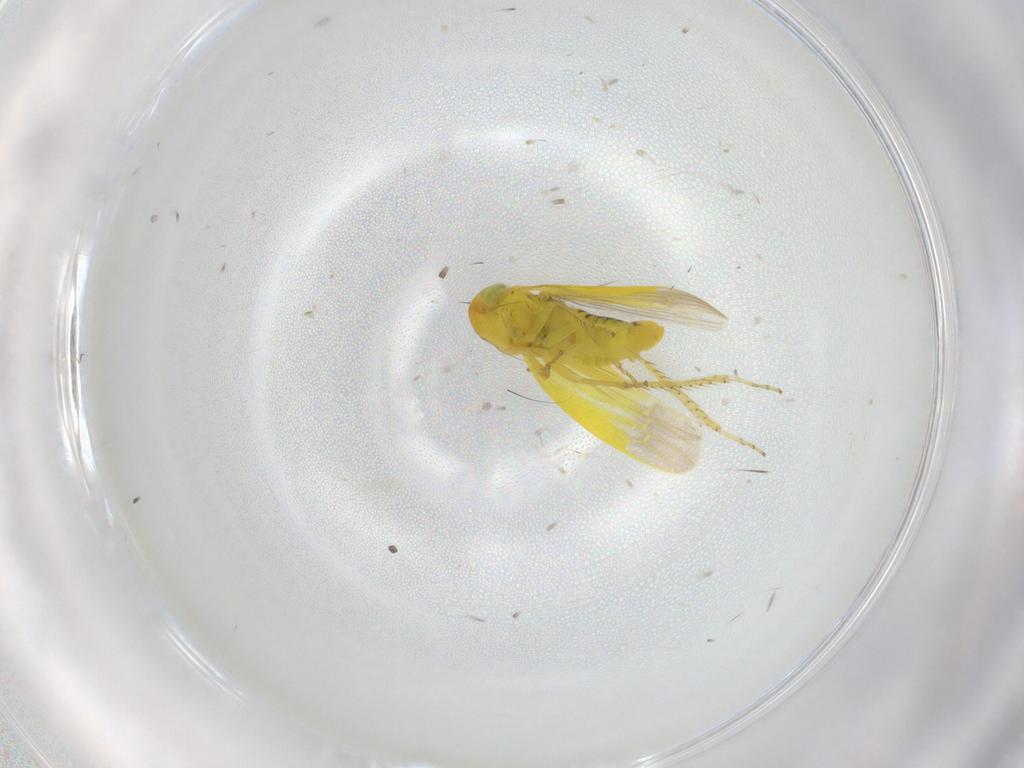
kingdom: Animalia
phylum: Arthropoda
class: Insecta
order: Hemiptera
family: Cicadellidae
